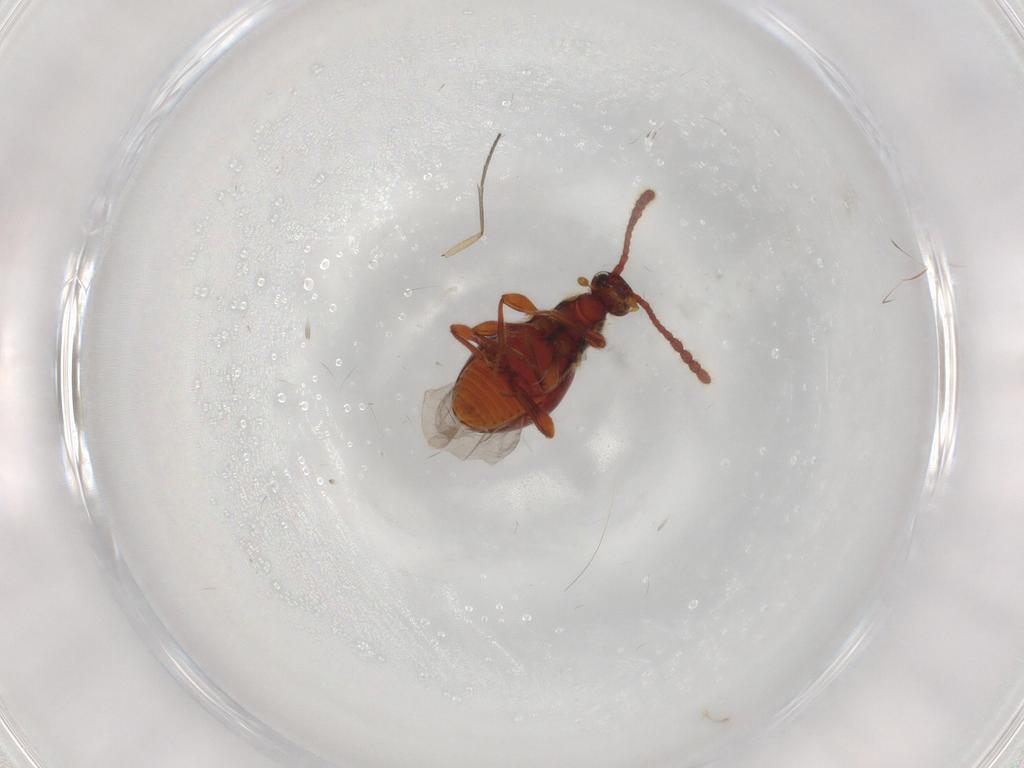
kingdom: Animalia
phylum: Arthropoda
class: Insecta
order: Coleoptera
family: Staphylinidae
